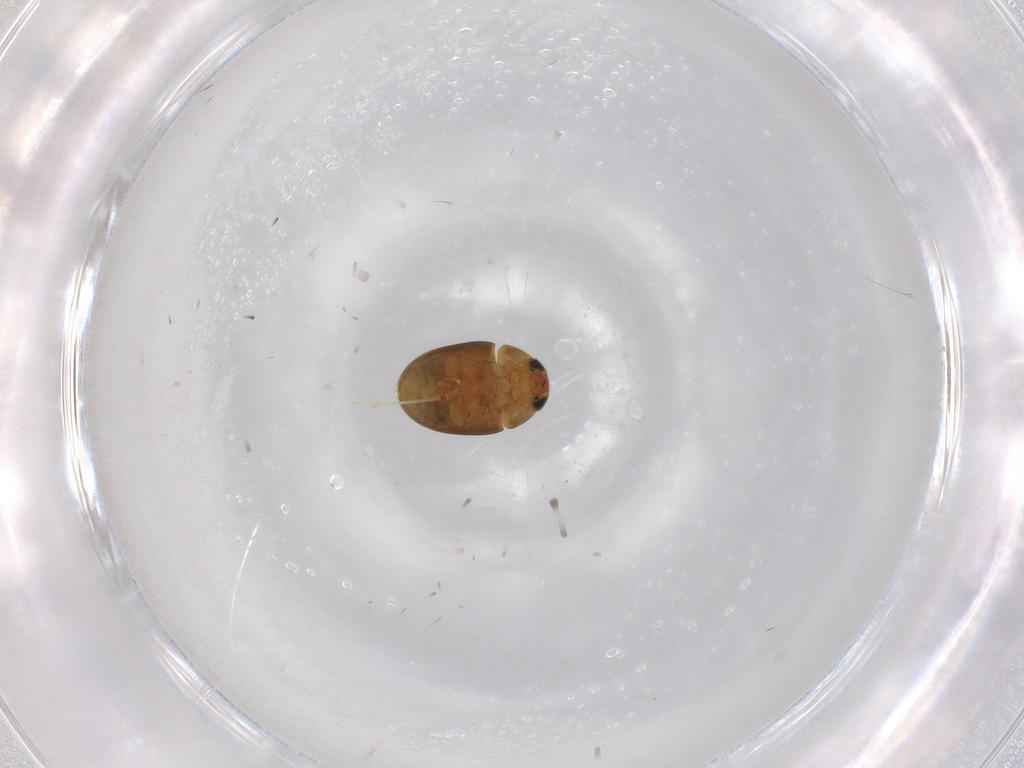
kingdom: Animalia
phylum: Arthropoda
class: Insecta
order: Coleoptera
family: Phalacridae
